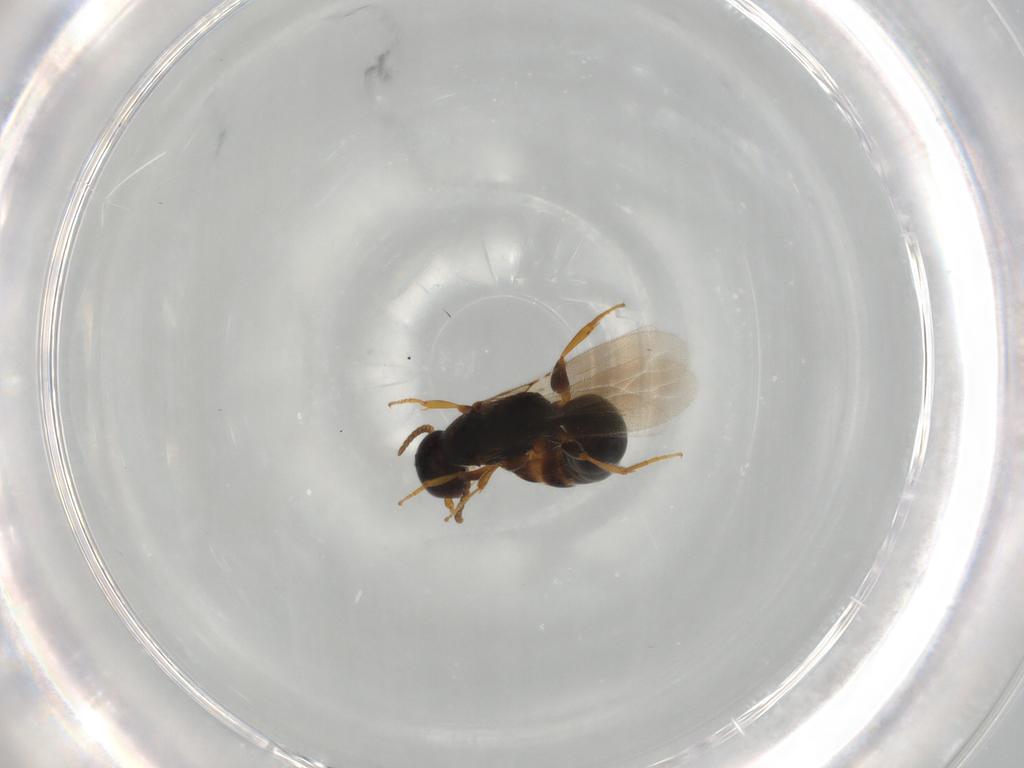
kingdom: Animalia
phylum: Arthropoda
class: Insecta
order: Hymenoptera
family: Bethylidae
